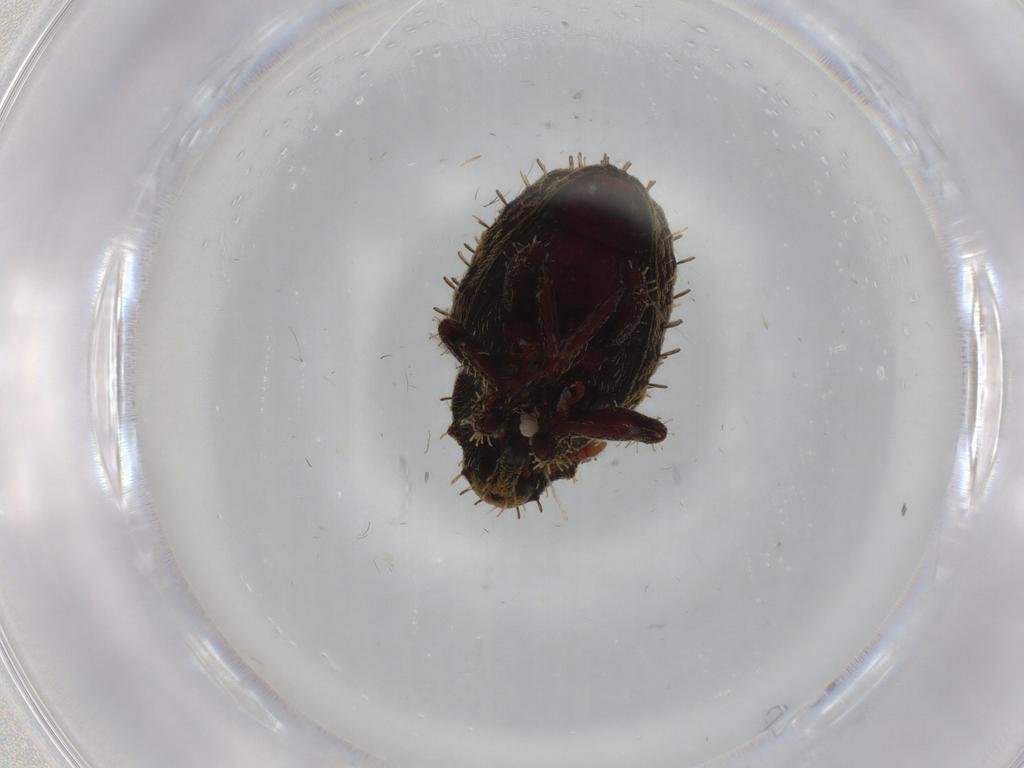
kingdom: Animalia
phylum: Arthropoda
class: Insecta
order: Coleoptera
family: Curculionidae
